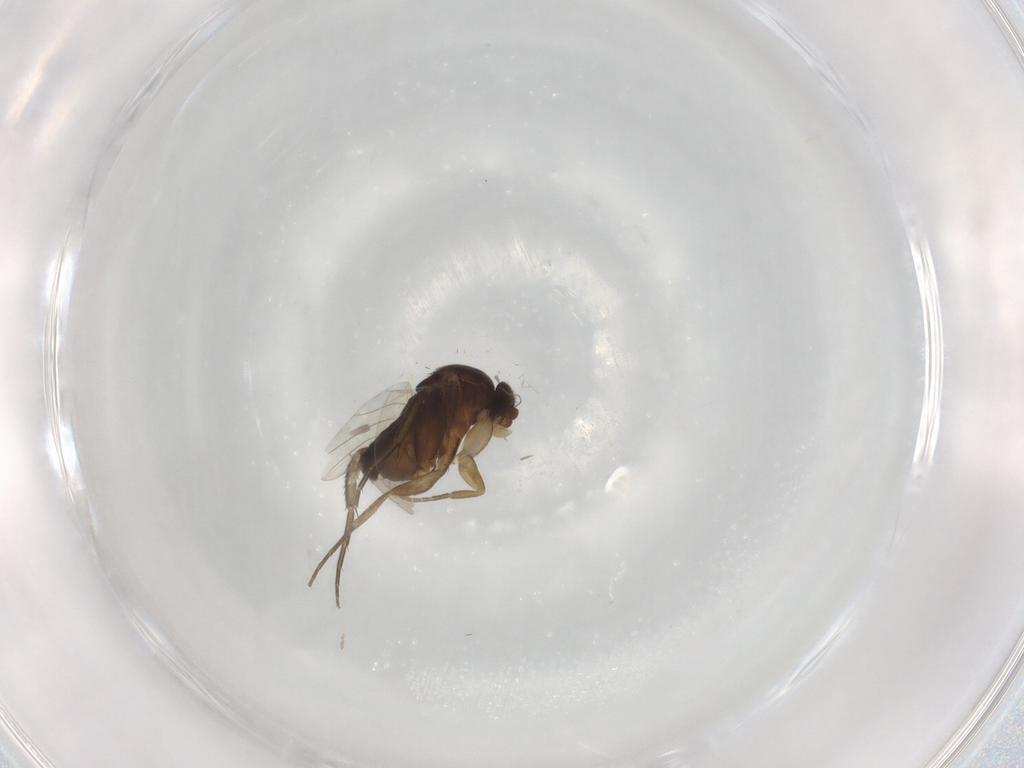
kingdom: Animalia
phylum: Arthropoda
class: Insecta
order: Diptera
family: Phoridae
